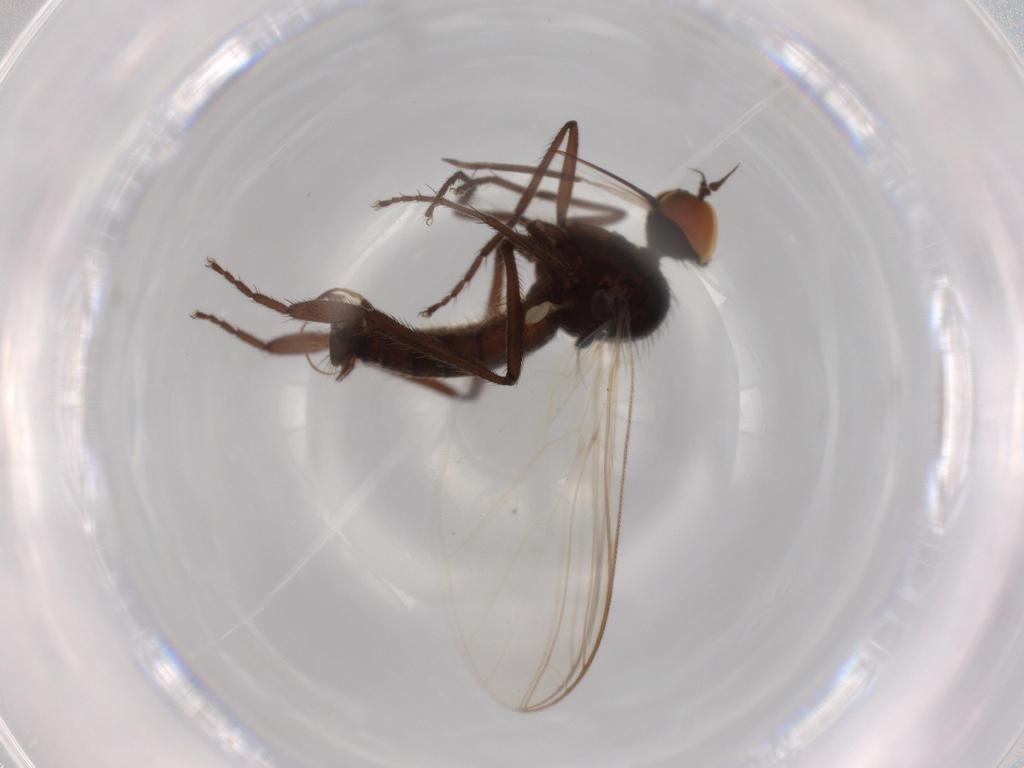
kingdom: Animalia
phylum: Arthropoda
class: Insecta
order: Diptera
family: Empididae
